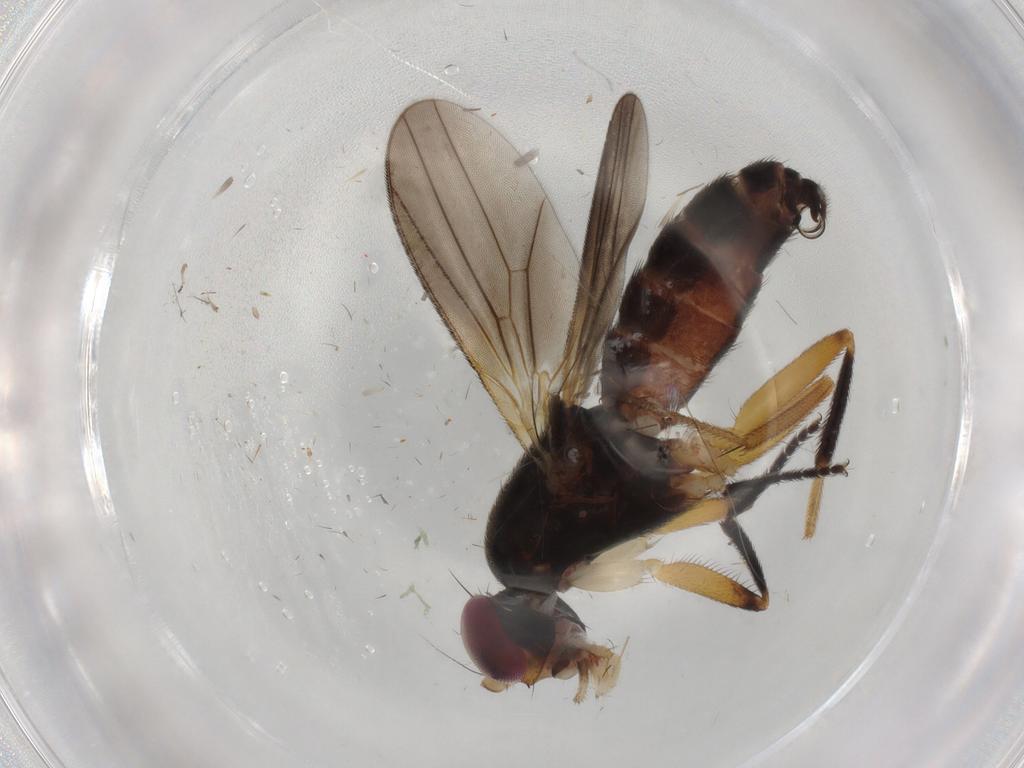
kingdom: Animalia
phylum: Arthropoda
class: Insecta
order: Diptera
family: Clusiidae
